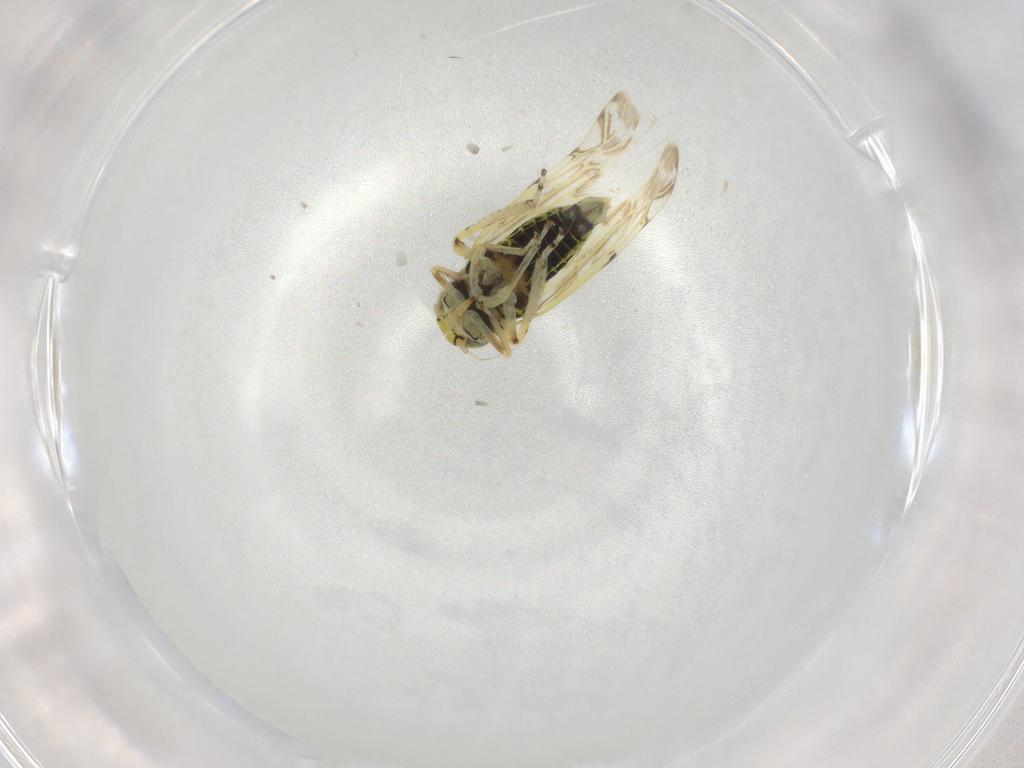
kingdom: Animalia
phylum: Arthropoda
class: Insecta
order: Hemiptera
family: Cicadellidae
